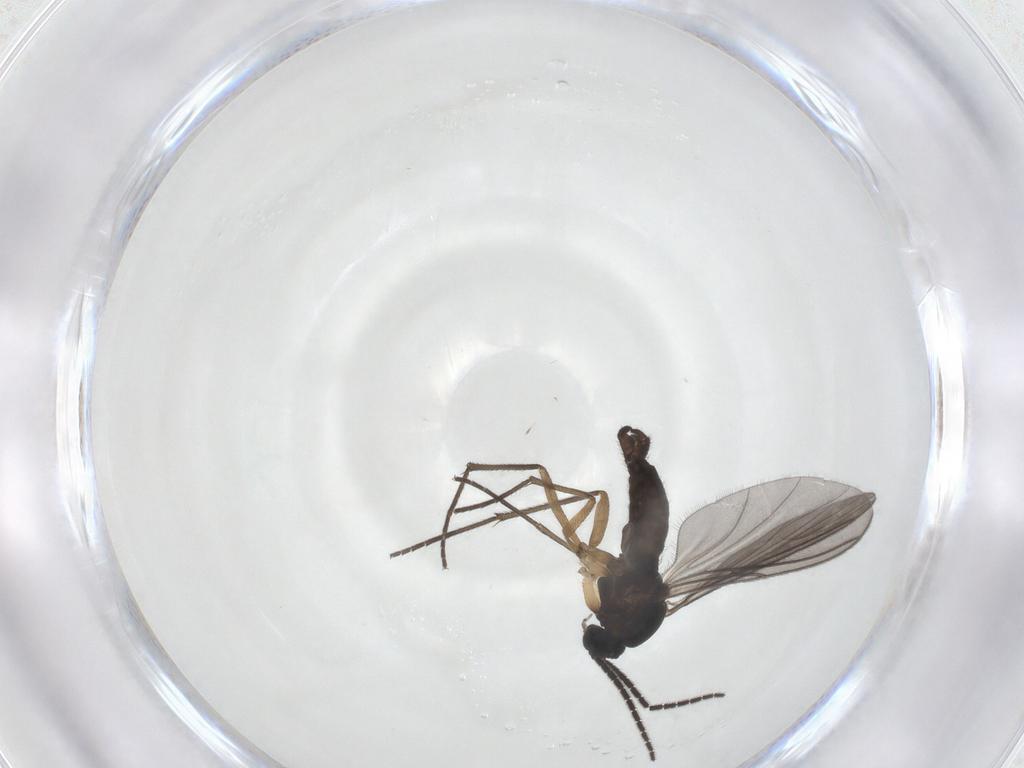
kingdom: Animalia
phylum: Arthropoda
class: Insecta
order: Diptera
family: Sciaridae
